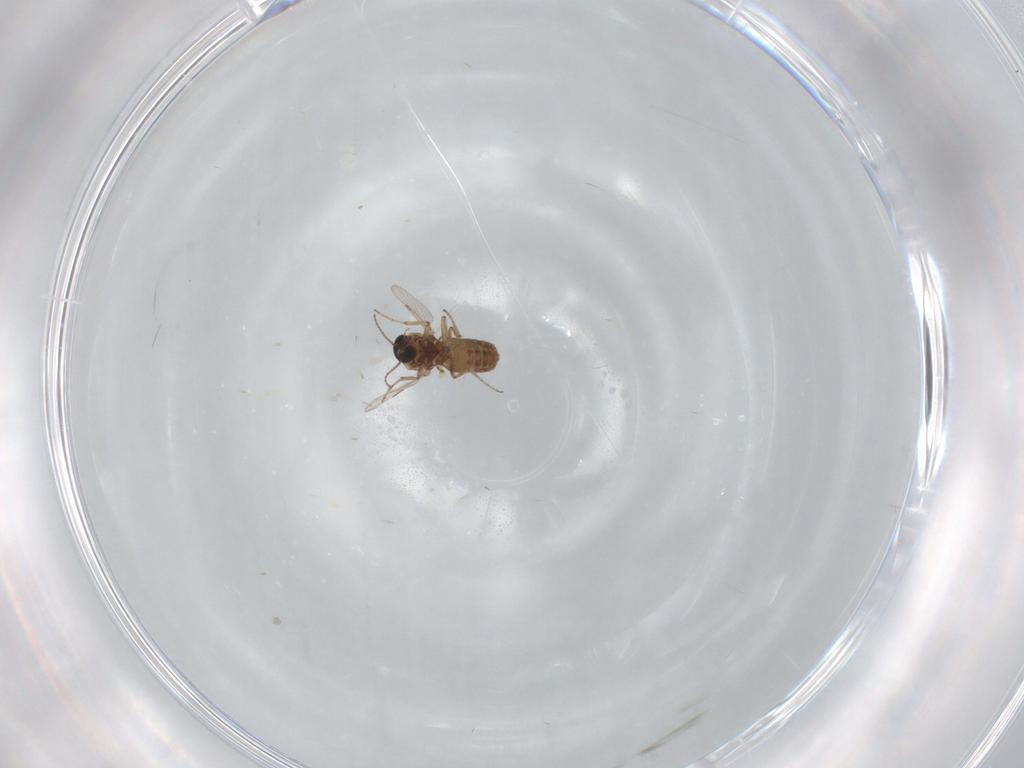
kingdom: Animalia
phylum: Arthropoda
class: Insecta
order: Diptera
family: Ceratopogonidae
